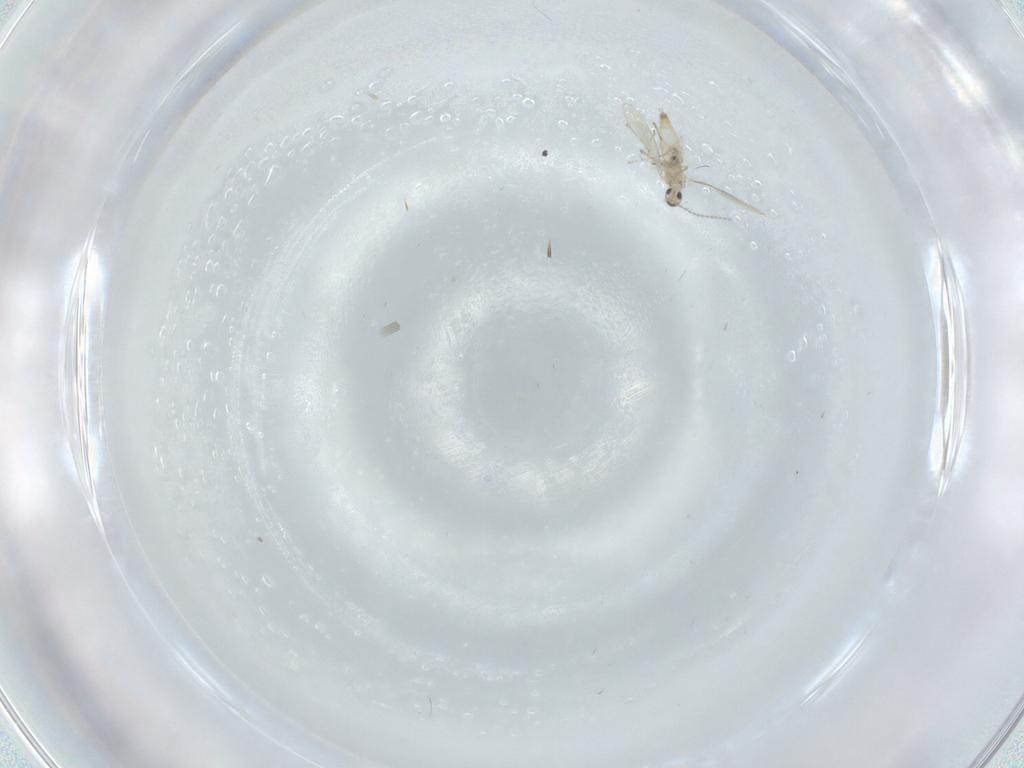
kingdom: Animalia
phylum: Arthropoda
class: Insecta
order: Diptera
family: Cecidomyiidae
